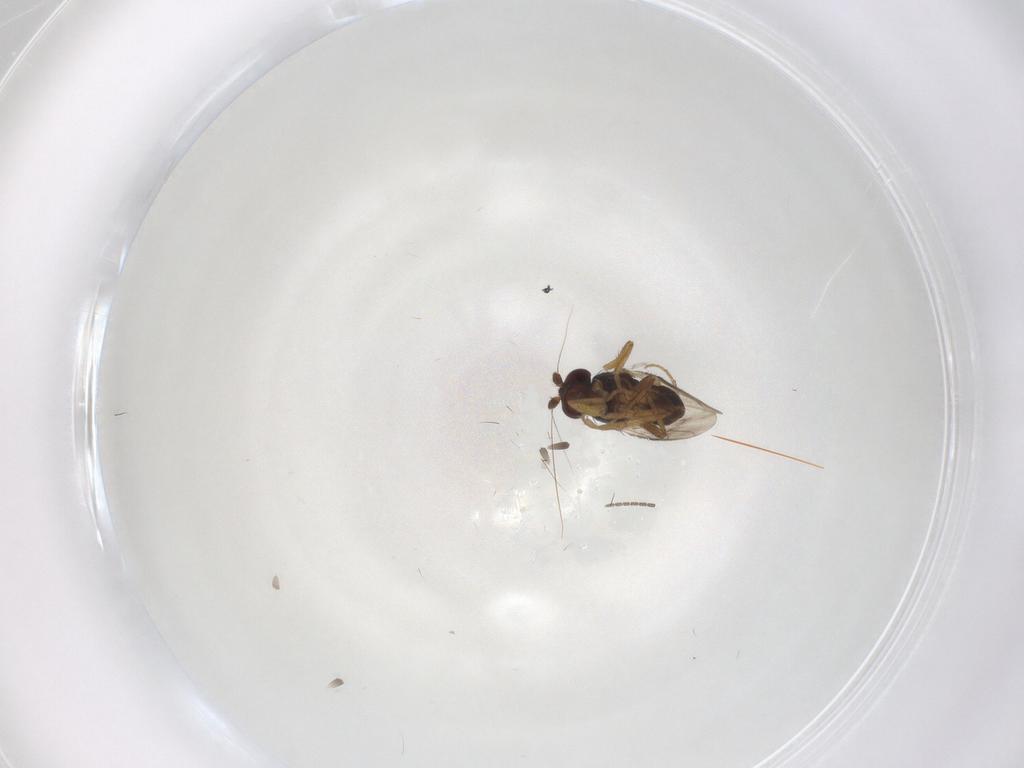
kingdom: Animalia
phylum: Arthropoda
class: Insecta
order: Diptera
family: Sphaeroceridae
